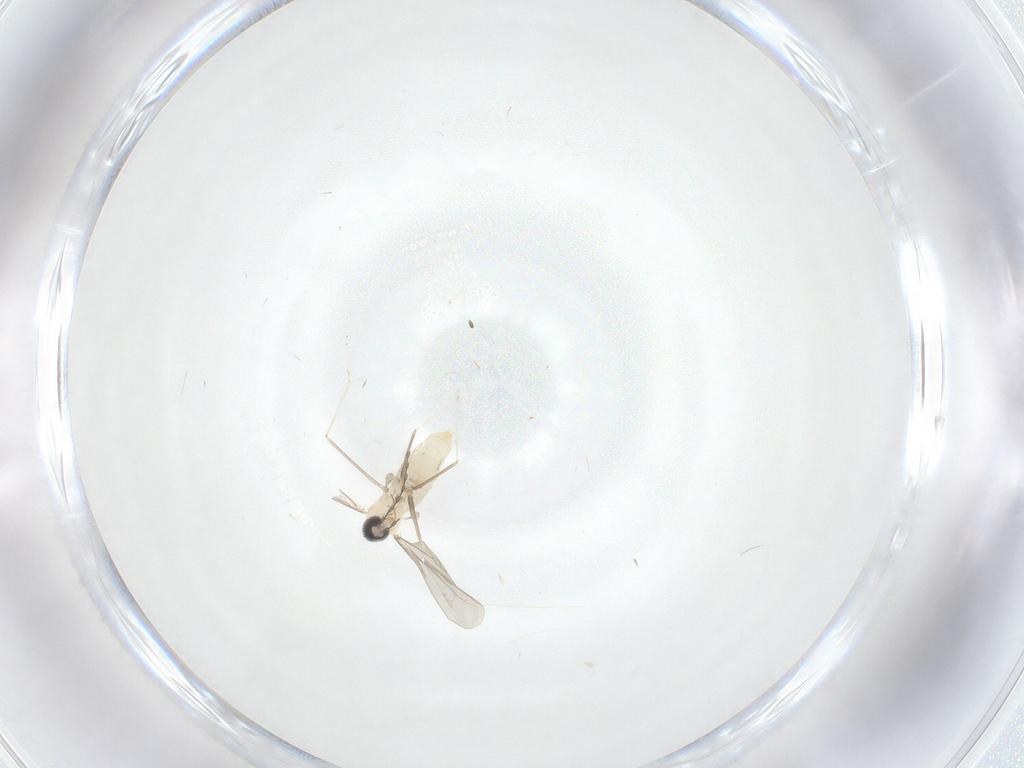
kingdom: Animalia
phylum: Arthropoda
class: Insecta
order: Diptera
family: Cecidomyiidae
